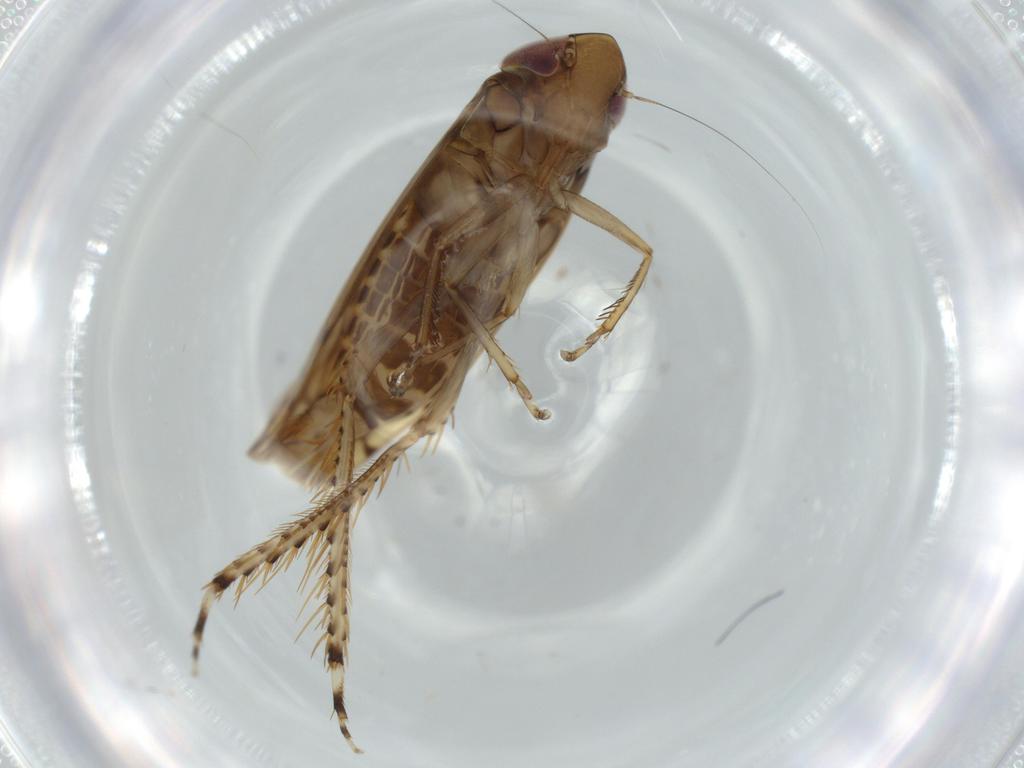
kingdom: Animalia
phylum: Arthropoda
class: Insecta
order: Hemiptera
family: Cicadellidae
